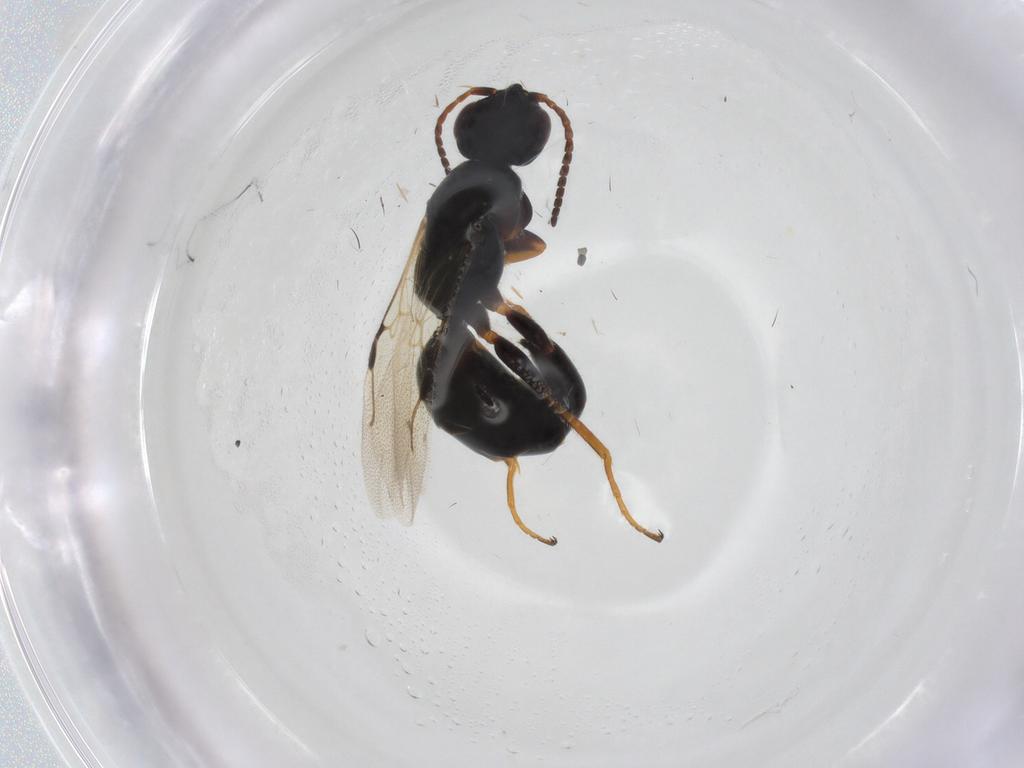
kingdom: Animalia
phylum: Arthropoda
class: Insecta
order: Hymenoptera
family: Bethylidae
